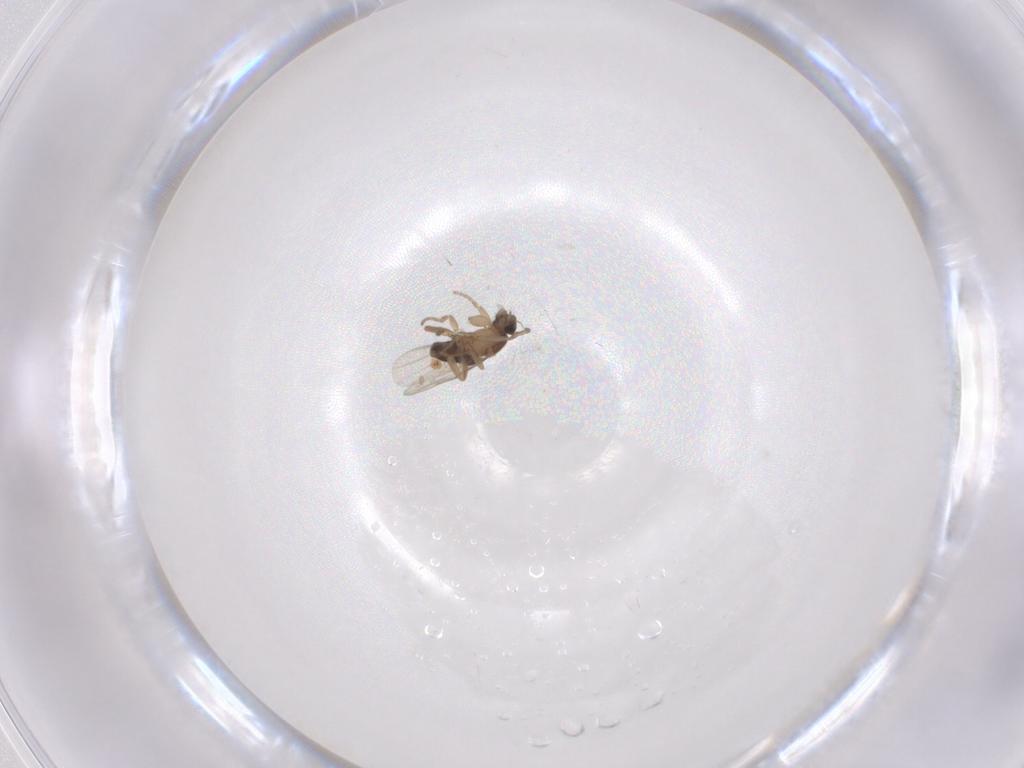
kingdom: Animalia
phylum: Arthropoda
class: Insecta
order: Diptera
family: Phoridae
